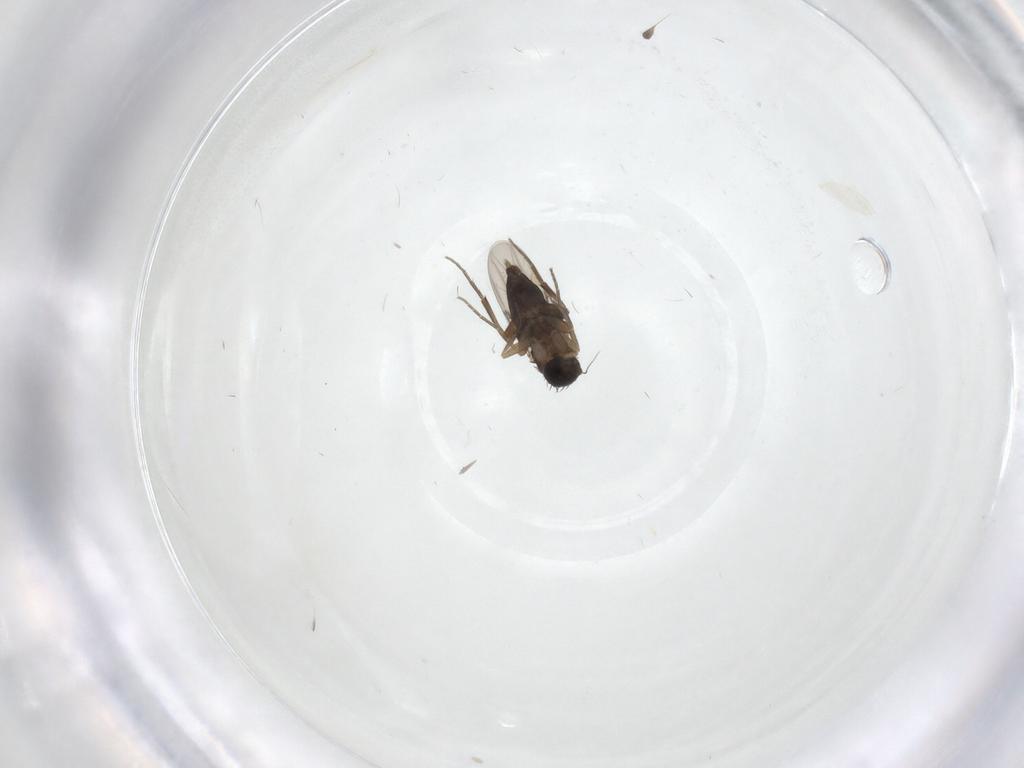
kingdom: Animalia
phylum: Arthropoda
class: Insecta
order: Diptera
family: Phoridae
